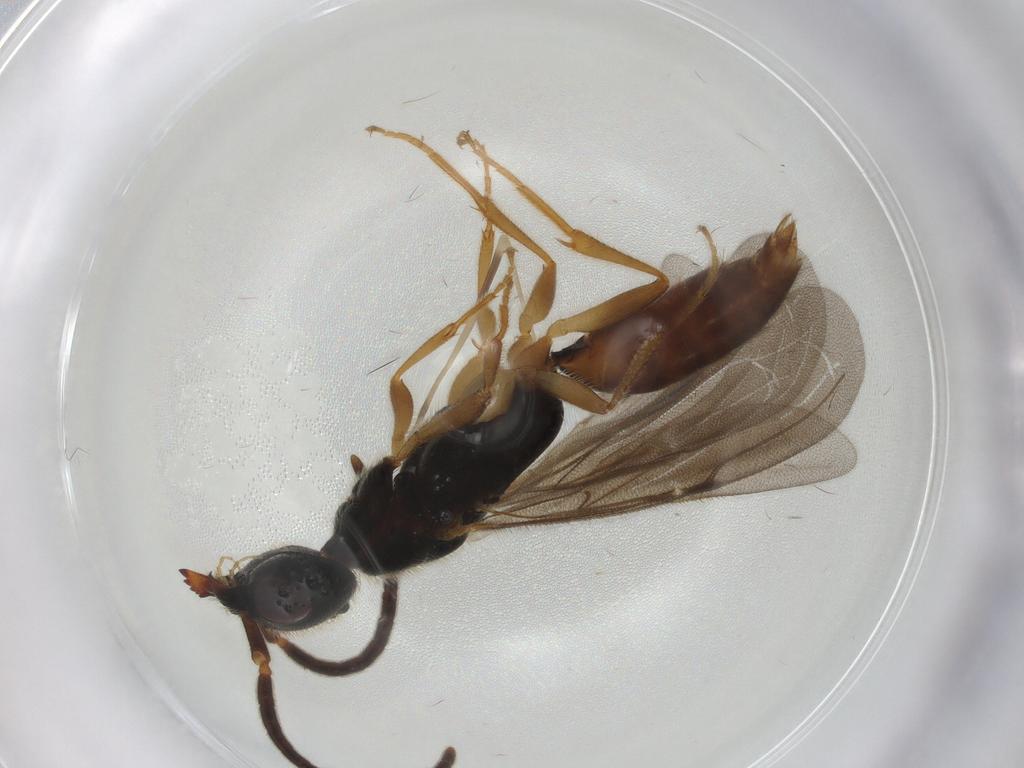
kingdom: Animalia
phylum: Arthropoda
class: Insecta
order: Hymenoptera
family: Bethylidae
